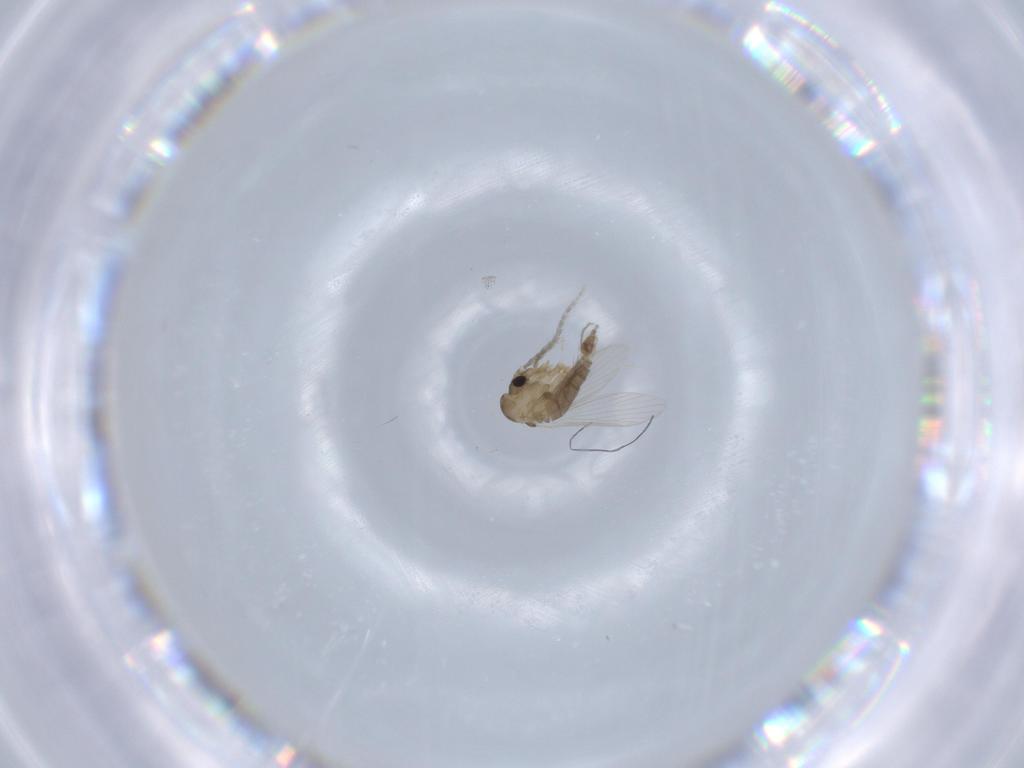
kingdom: Animalia
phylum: Arthropoda
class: Insecta
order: Diptera
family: Psychodidae
